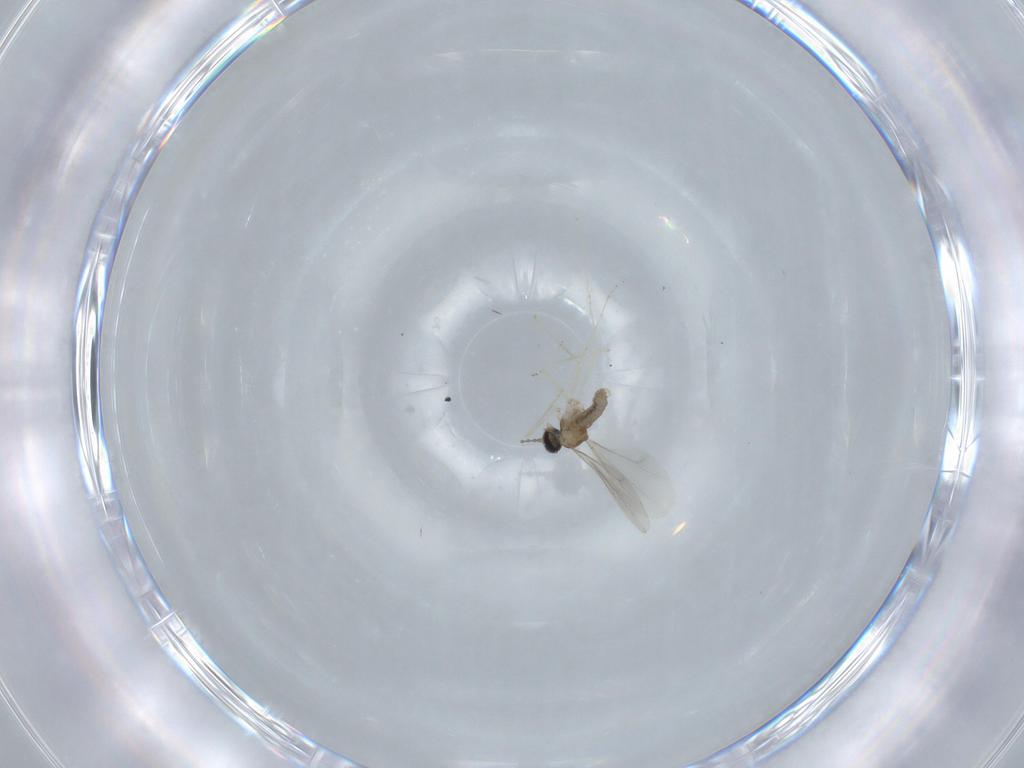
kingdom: Animalia
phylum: Arthropoda
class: Insecta
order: Diptera
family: Cecidomyiidae
